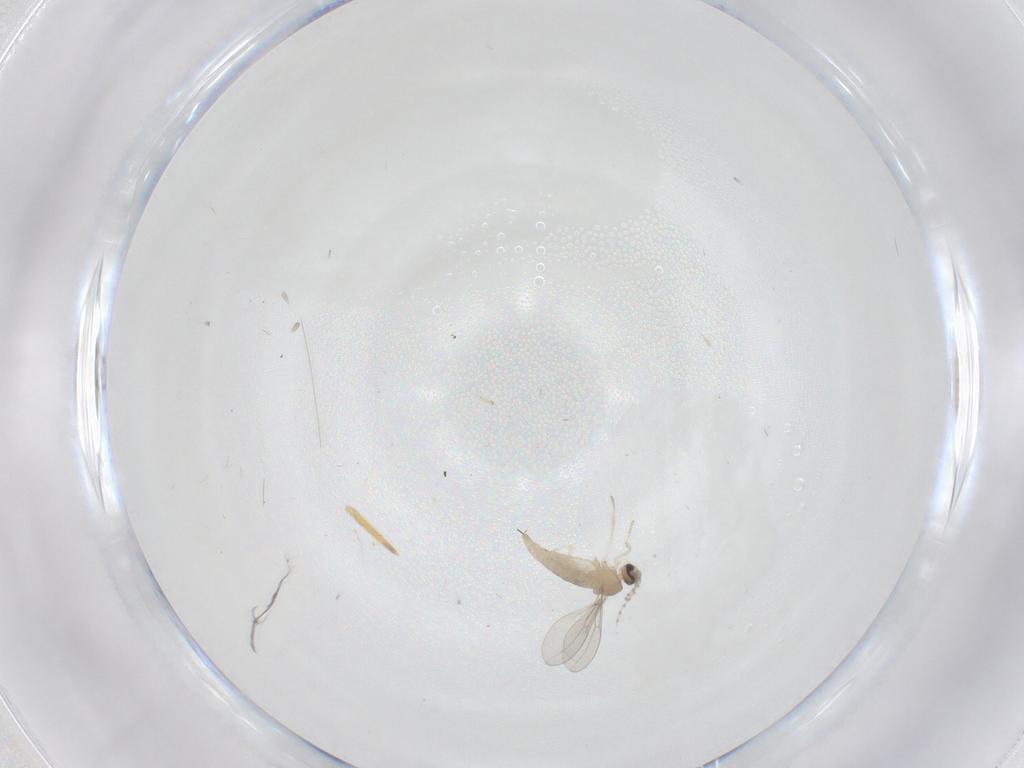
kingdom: Animalia
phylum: Arthropoda
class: Insecta
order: Diptera
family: Cecidomyiidae
